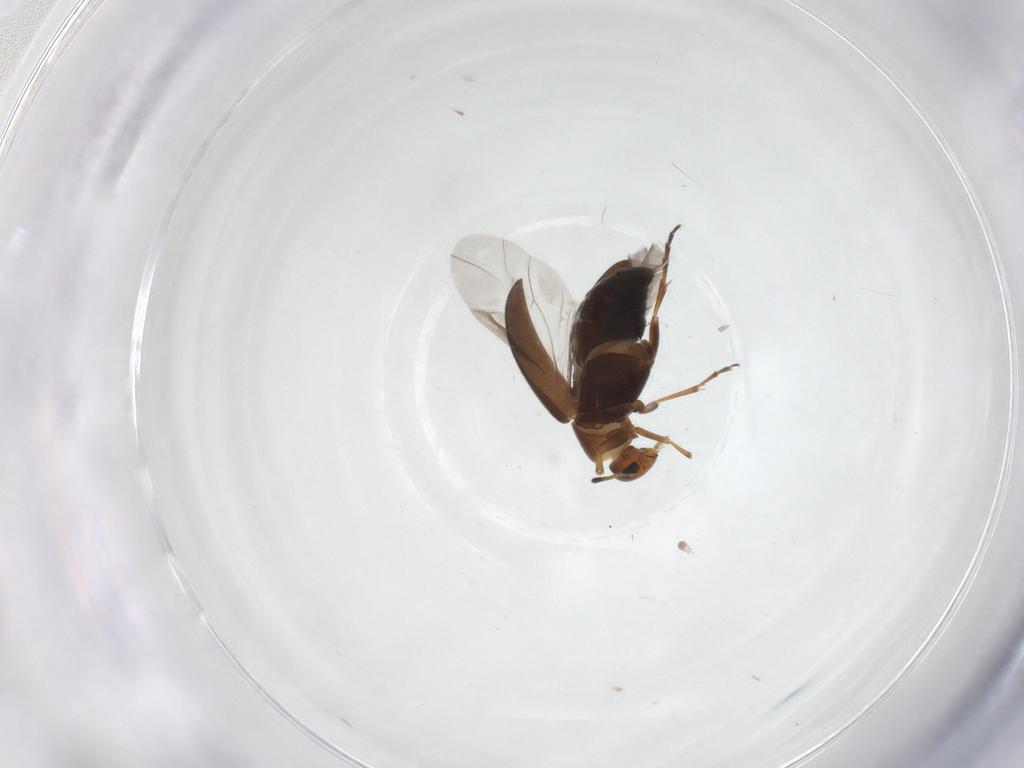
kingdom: Animalia
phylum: Arthropoda
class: Insecta
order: Coleoptera
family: Scraptiidae
